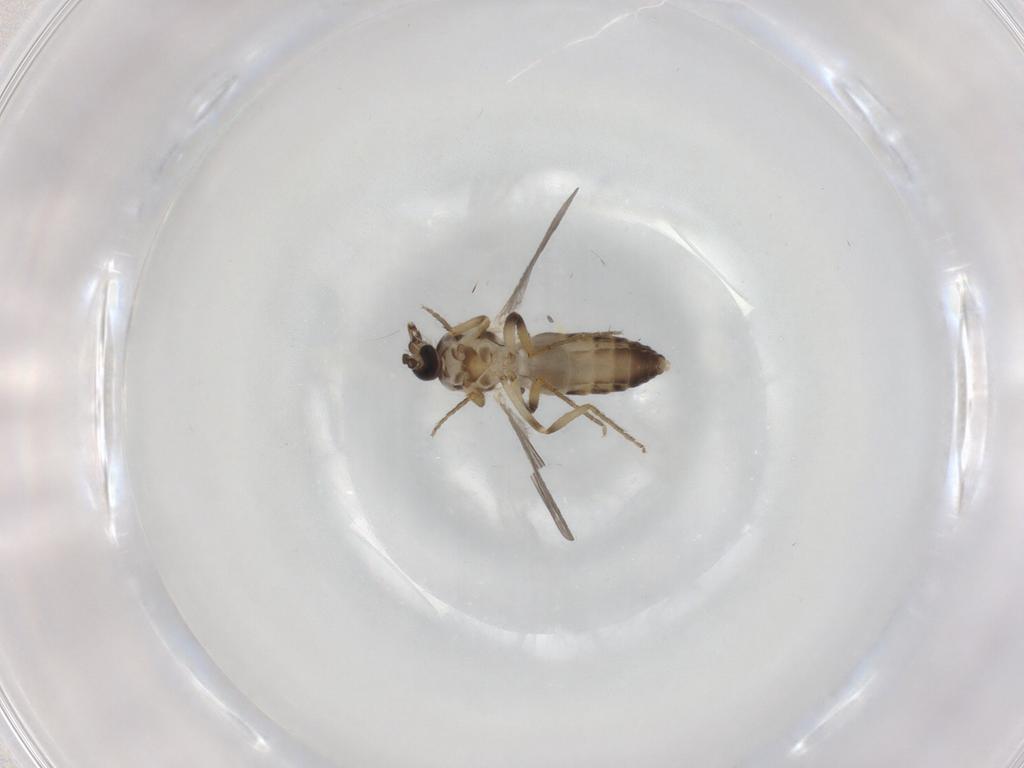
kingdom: Animalia
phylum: Arthropoda
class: Insecta
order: Diptera
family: Ceratopogonidae
